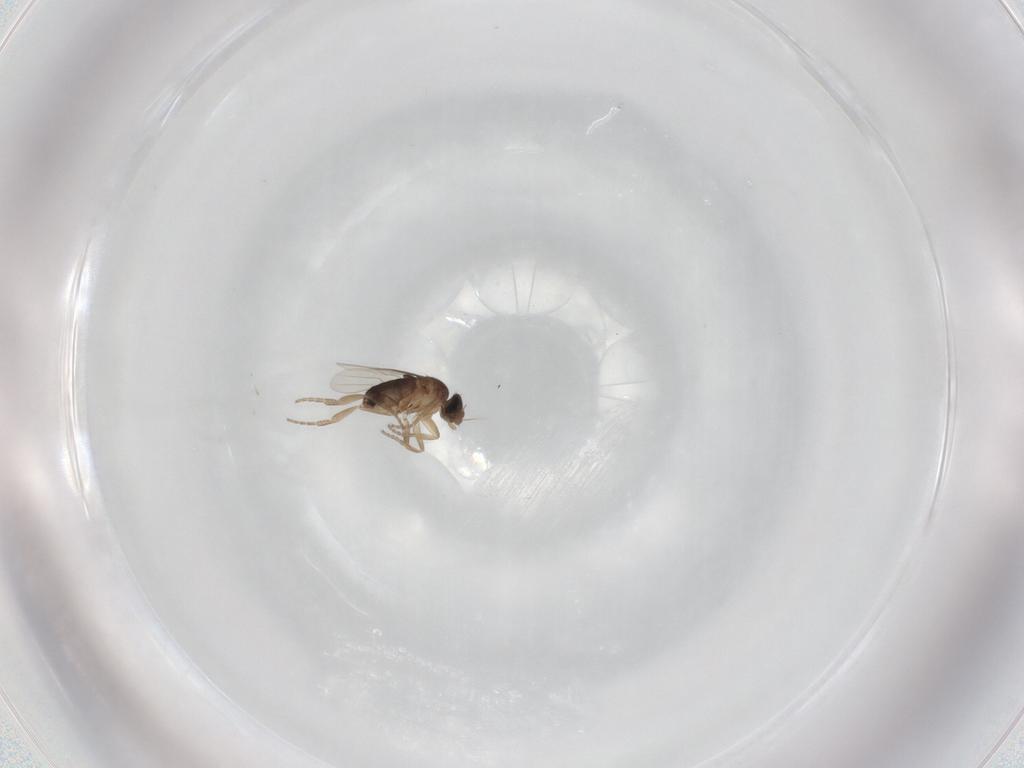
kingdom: Animalia
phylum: Arthropoda
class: Insecta
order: Diptera
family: Phoridae
